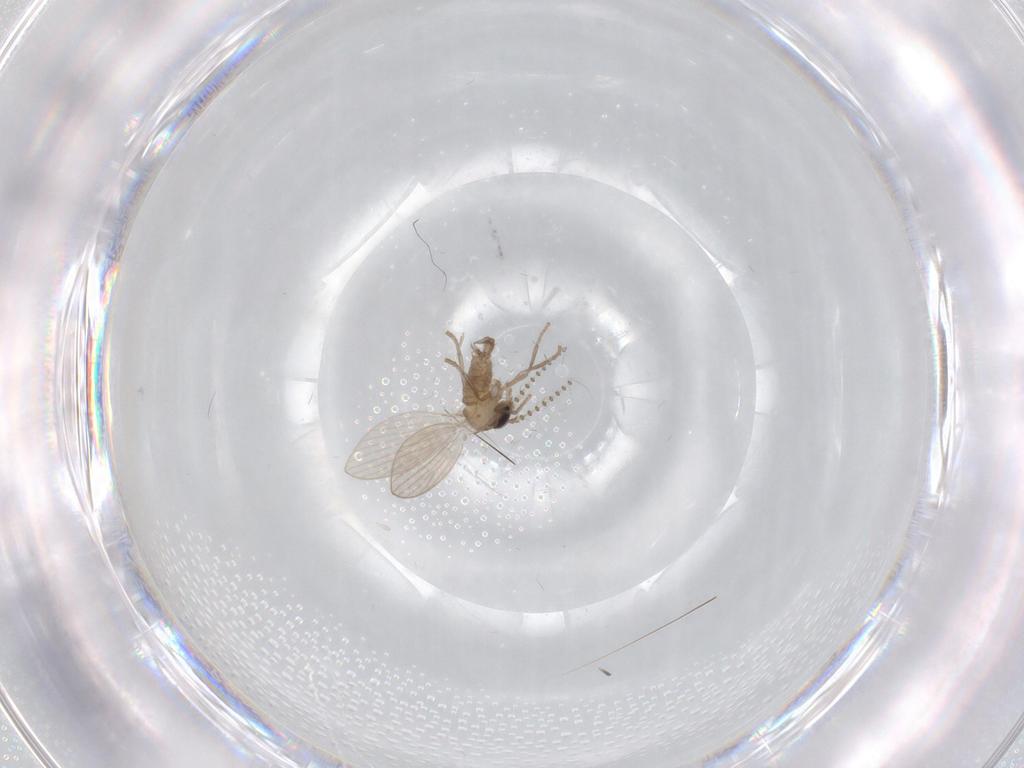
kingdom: Animalia
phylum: Arthropoda
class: Insecta
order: Diptera
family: Psychodidae
